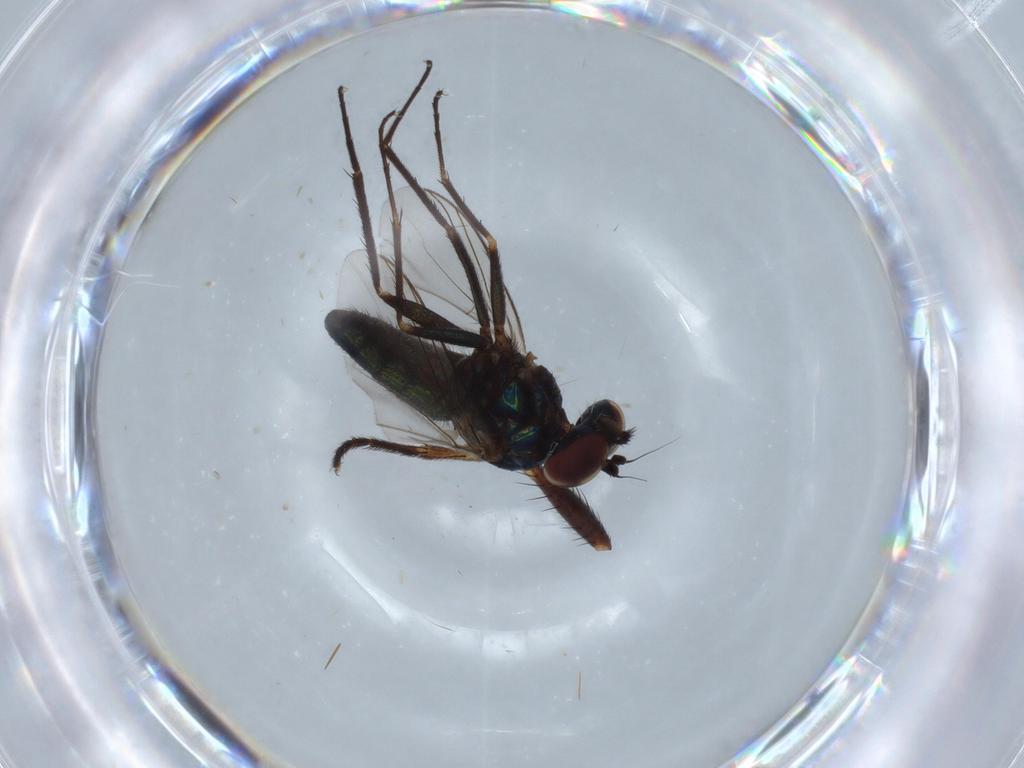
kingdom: Animalia
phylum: Arthropoda
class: Insecta
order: Diptera
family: Dolichopodidae
